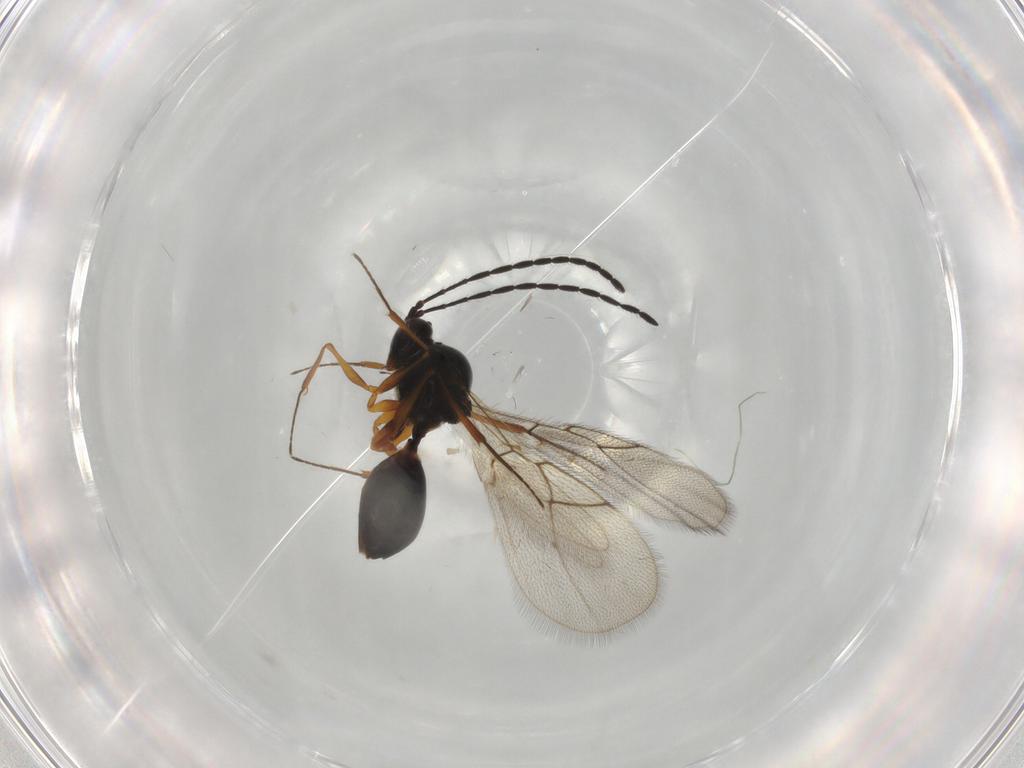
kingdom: Animalia
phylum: Arthropoda
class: Insecta
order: Hymenoptera
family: Figitidae
